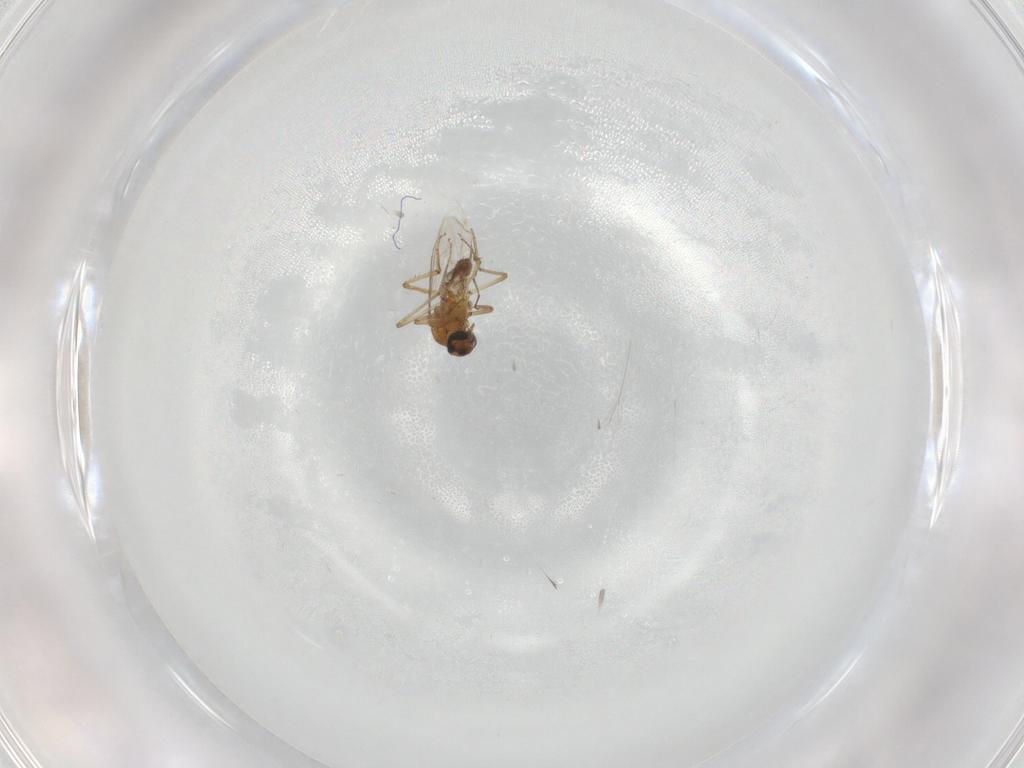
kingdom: Animalia
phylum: Arthropoda
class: Insecta
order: Diptera
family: Ceratopogonidae
